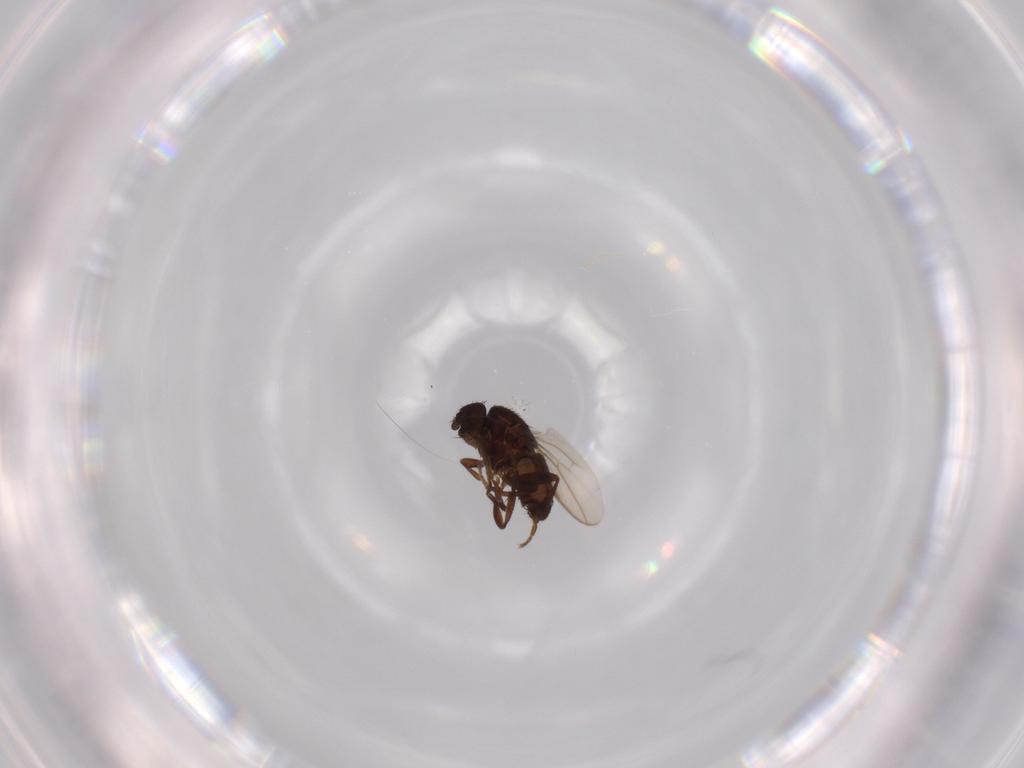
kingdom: Animalia
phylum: Arthropoda
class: Insecta
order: Diptera
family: Sphaeroceridae
